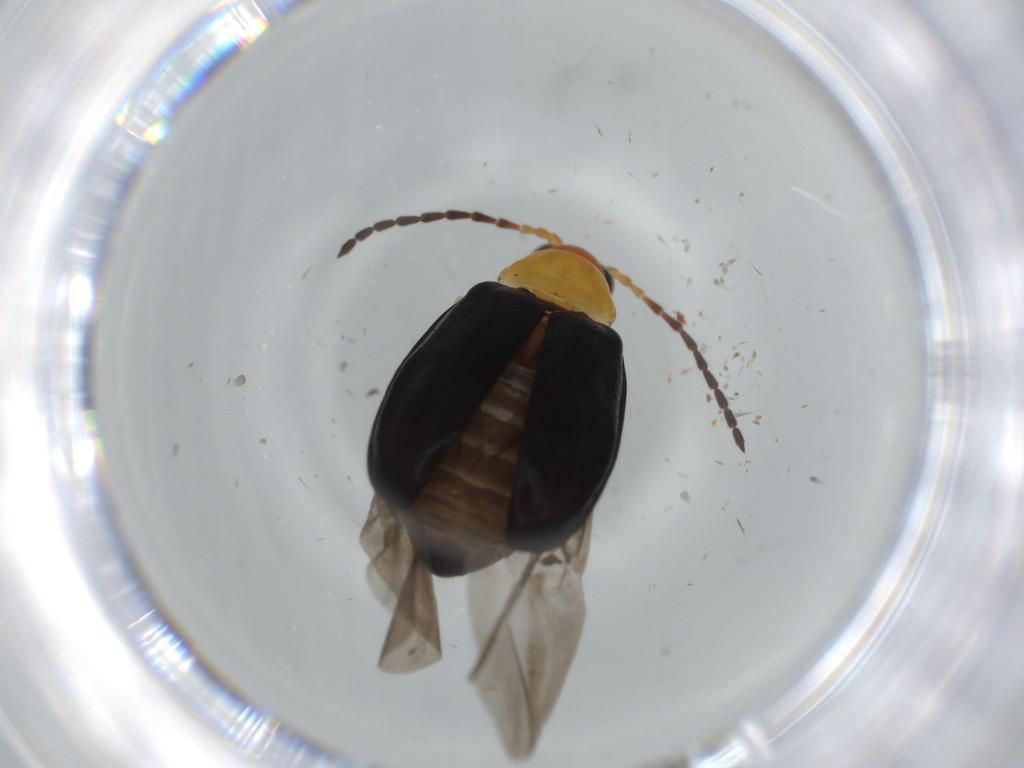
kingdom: Animalia
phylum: Arthropoda
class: Insecta
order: Coleoptera
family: Chrysomelidae
